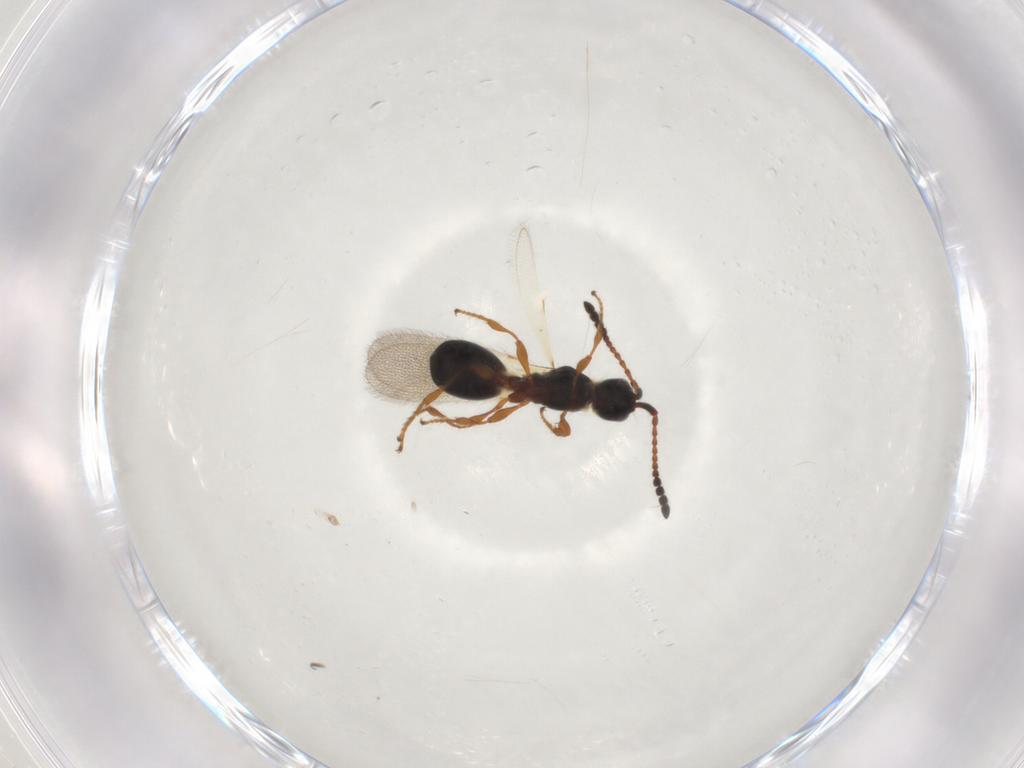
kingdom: Animalia
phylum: Arthropoda
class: Insecta
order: Hymenoptera
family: Diapriidae
